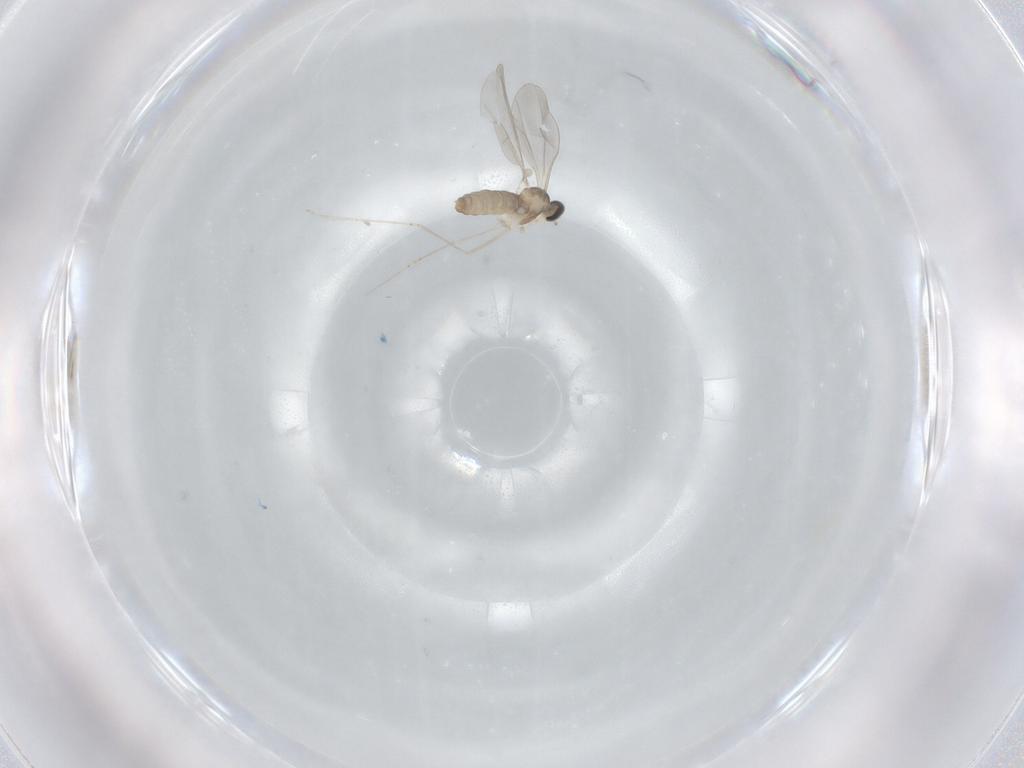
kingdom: Animalia
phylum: Arthropoda
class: Insecta
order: Diptera
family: Cecidomyiidae
